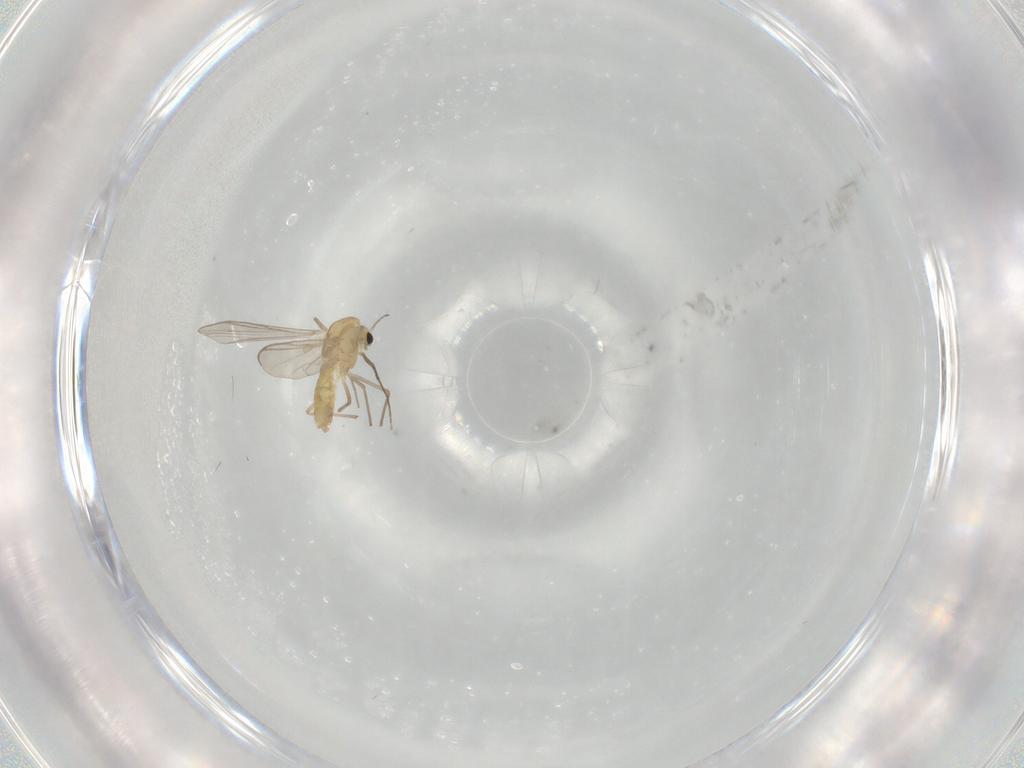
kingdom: Animalia
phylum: Arthropoda
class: Insecta
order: Diptera
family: Chironomidae
